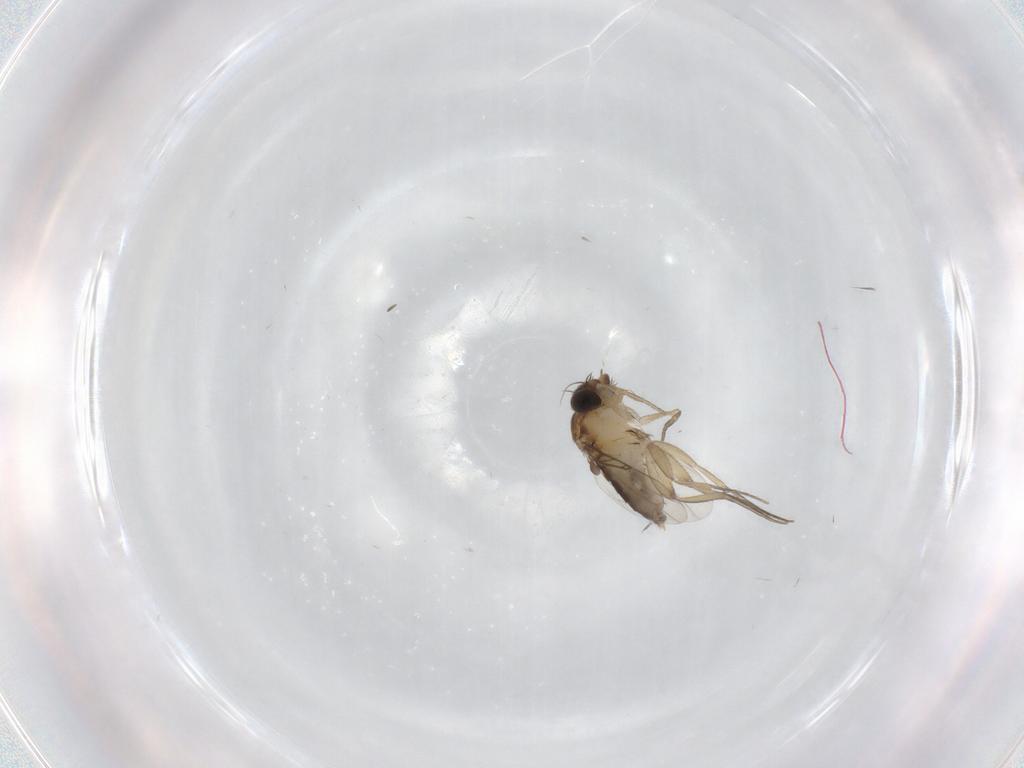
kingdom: Animalia
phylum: Arthropoda
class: Insecta
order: Diptera
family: Phoridae
